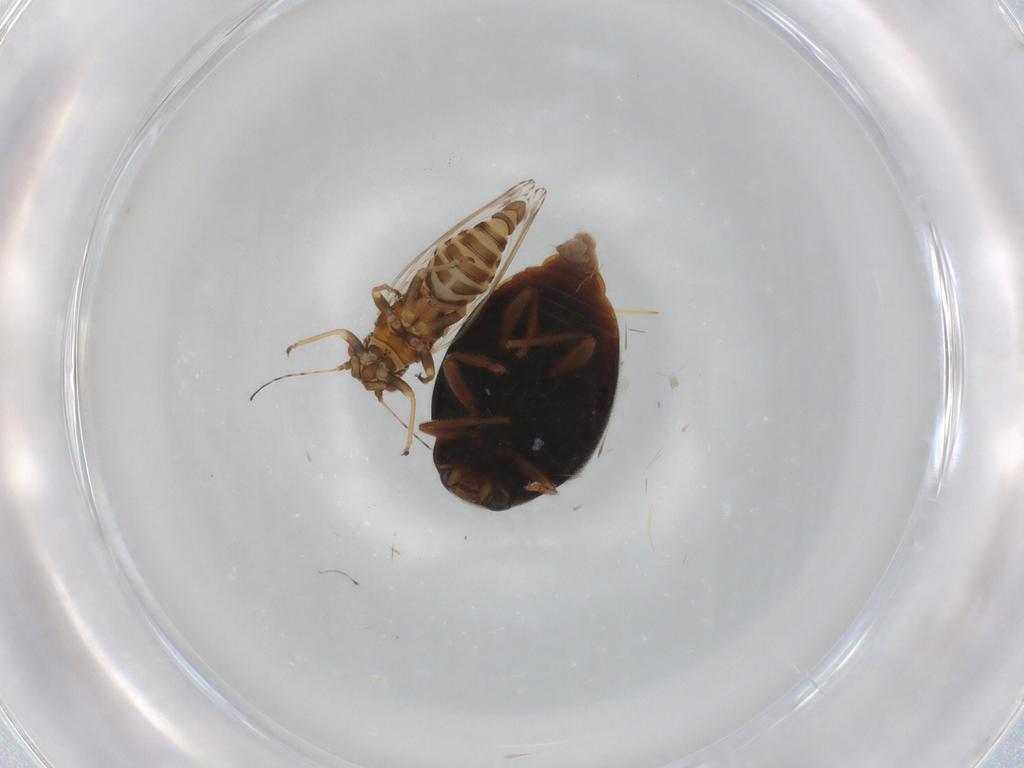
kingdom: Animalia
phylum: Arthropoda
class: Insecta
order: Coleoptera
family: Coccinellidae
